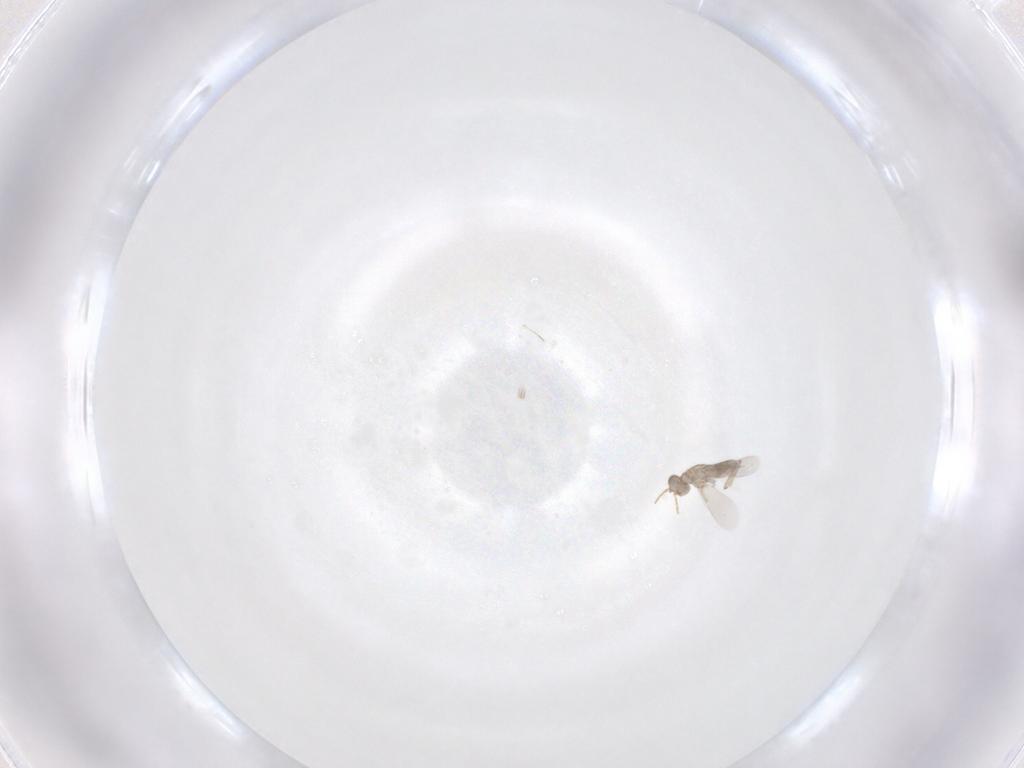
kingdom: Animalia
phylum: Arthropoda
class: Insecta
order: Hymenoptera
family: Aphelinidae
